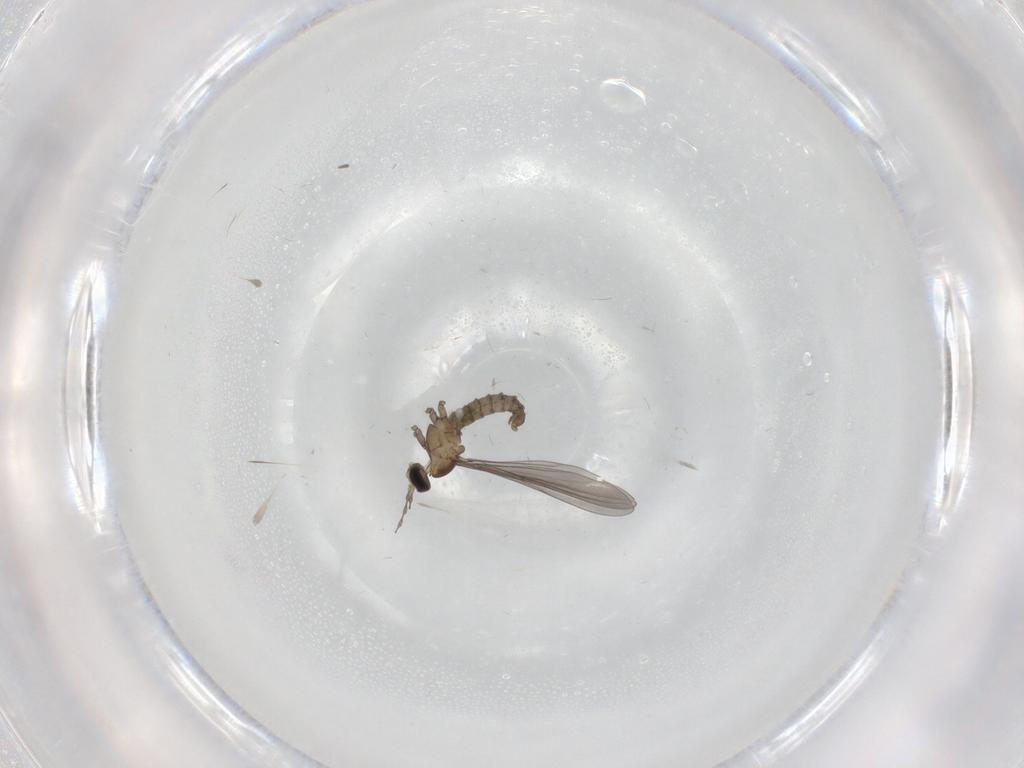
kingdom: Animalia
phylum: Arthropoda
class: Insecta
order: Diptera
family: Cecidomyiidae
